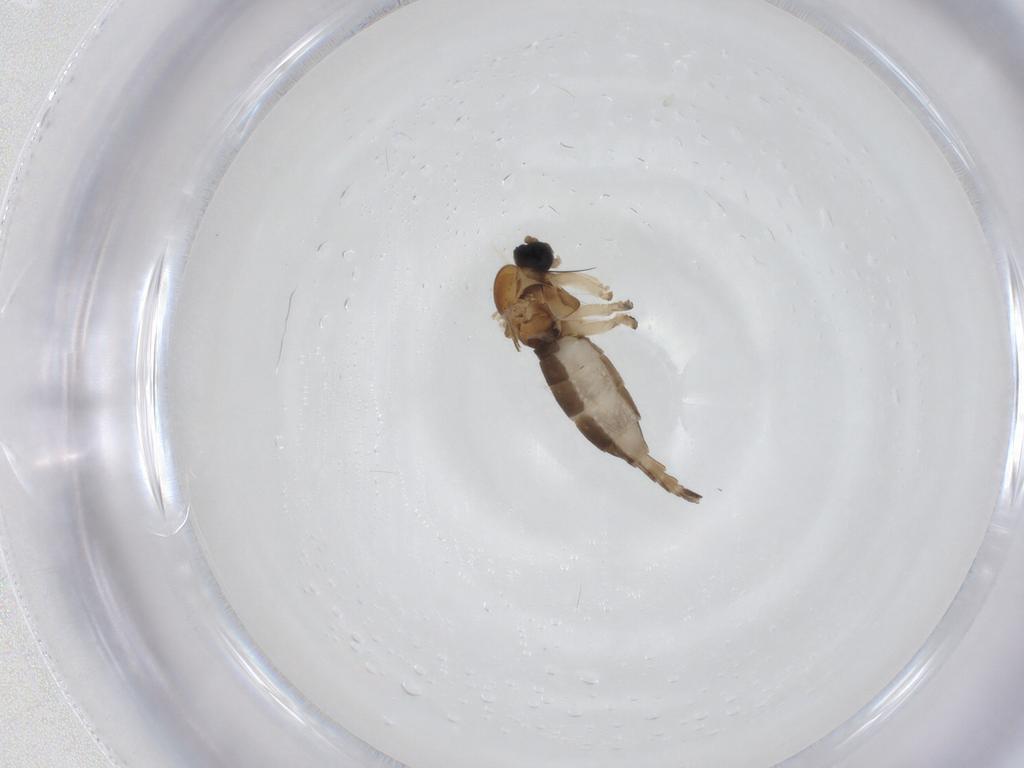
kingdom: Animalia
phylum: Arthropoda
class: Insecta
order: Diptera
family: Sciaridae
